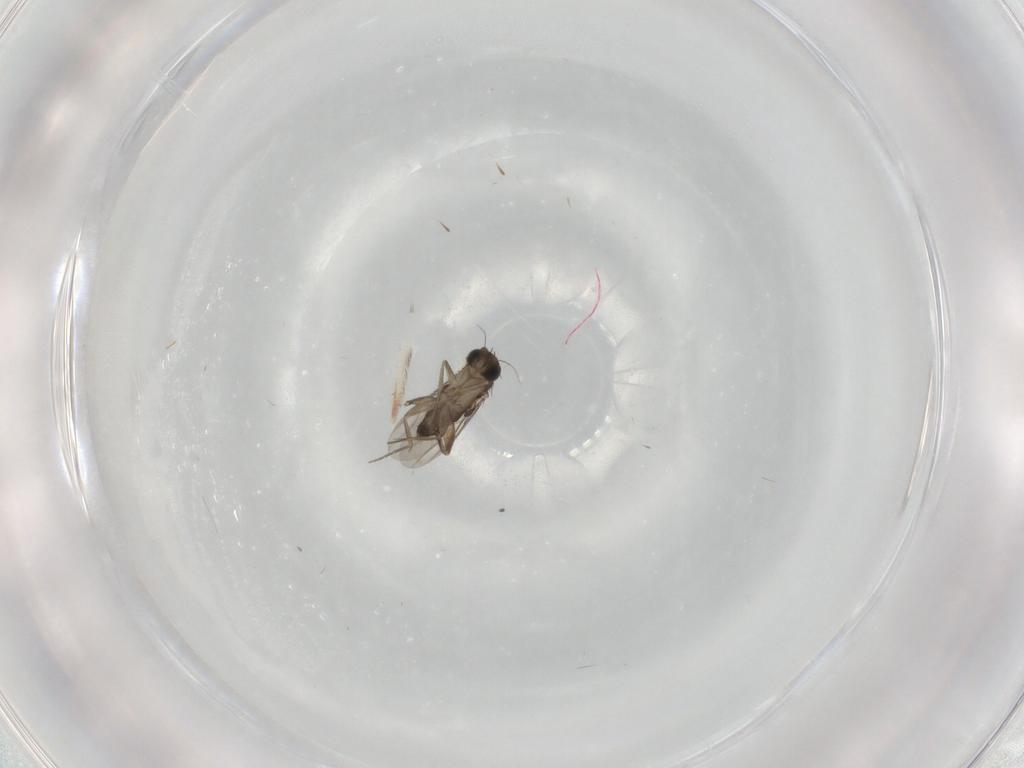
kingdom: Animalia
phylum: Arthropoda
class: Insecta
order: Diptera
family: Phoridae
